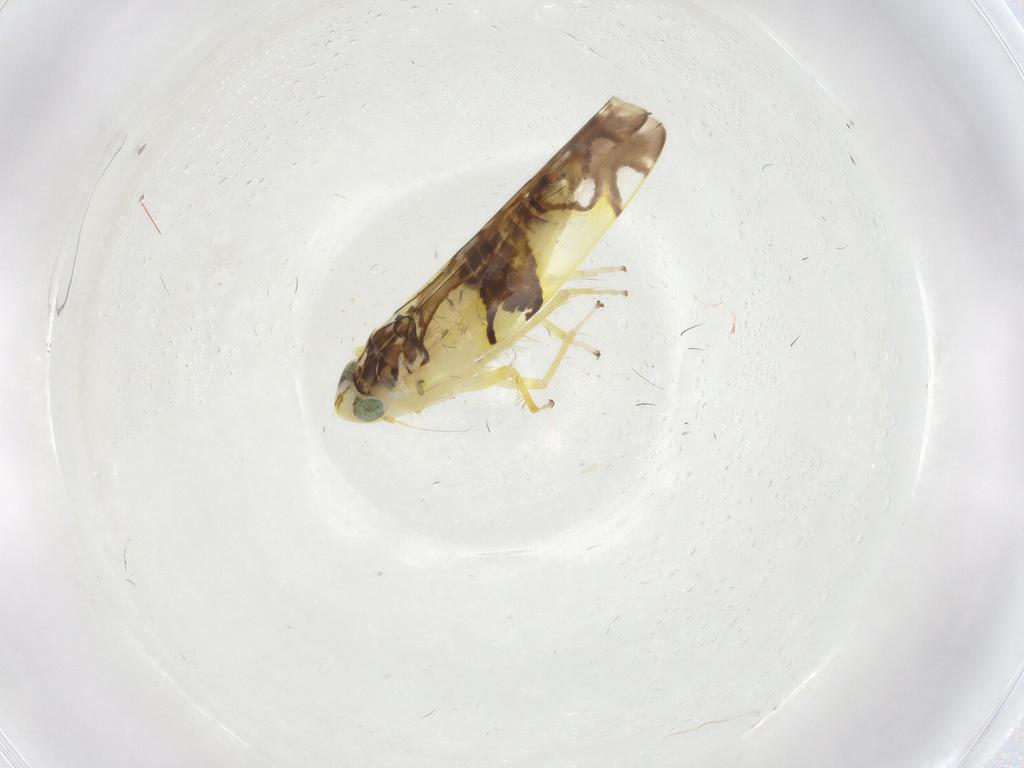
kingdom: Animalia
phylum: Arthropoda
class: Insecta
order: Hemiptera
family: Cicadellidae
